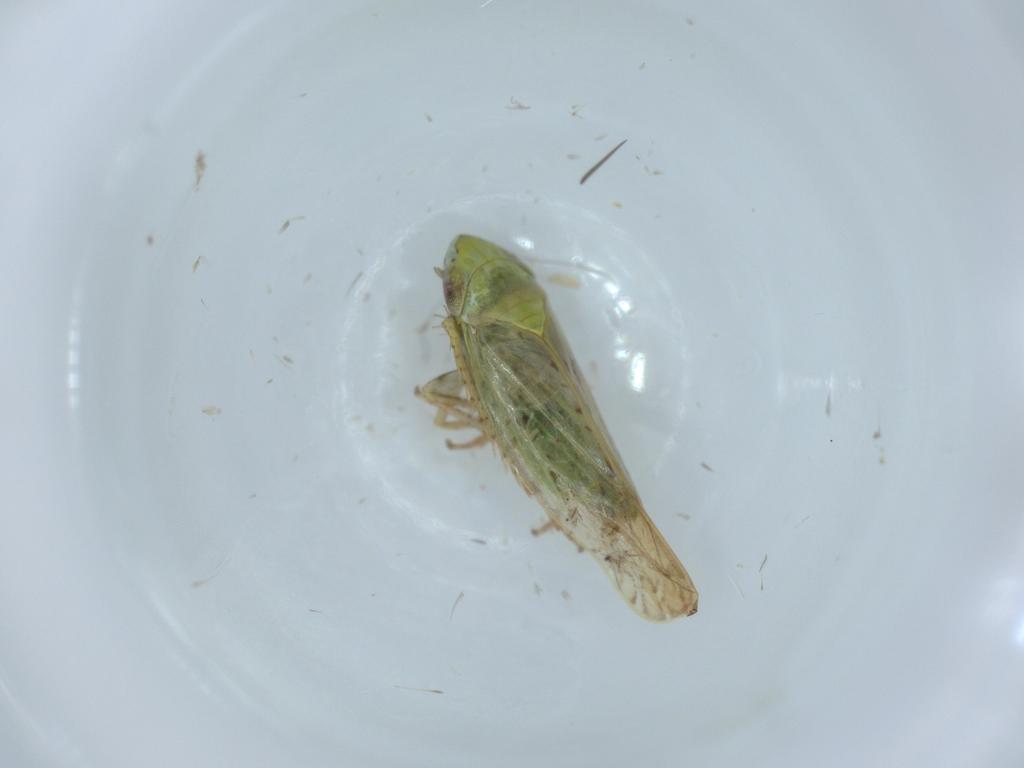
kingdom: Animalia
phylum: Arthropoda
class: Insecta
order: Hemiptera
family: Cicadellidae
